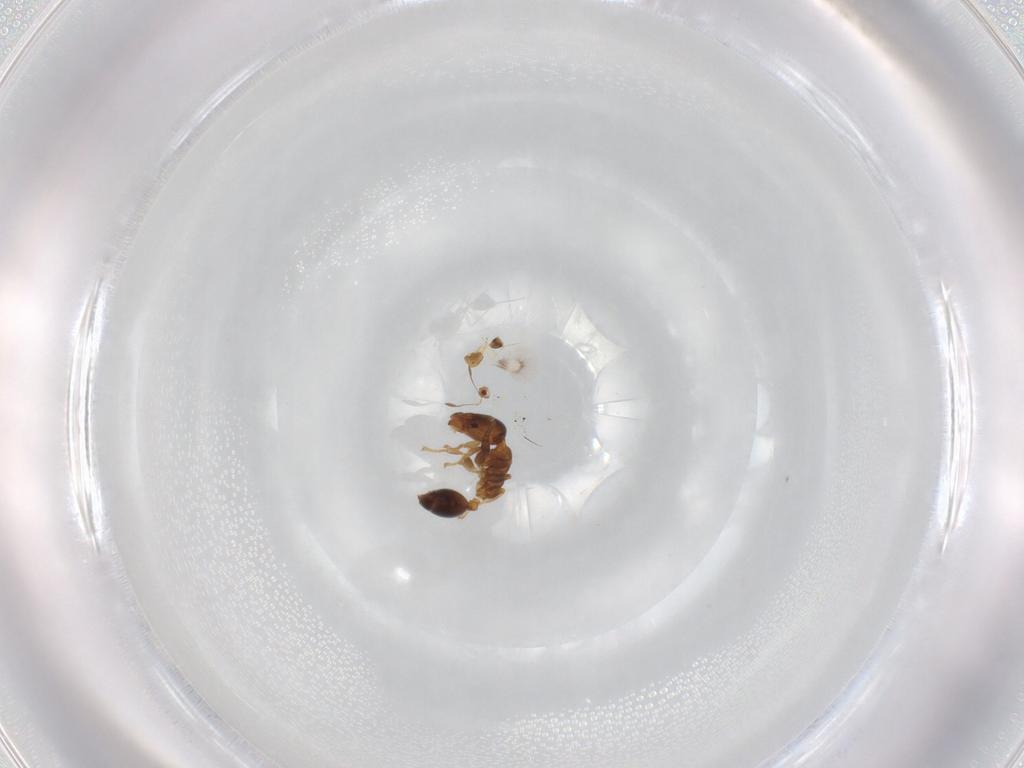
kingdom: Animalia
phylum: Arthropoda
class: Insecta
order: Hymenoptera
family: Formicidae
